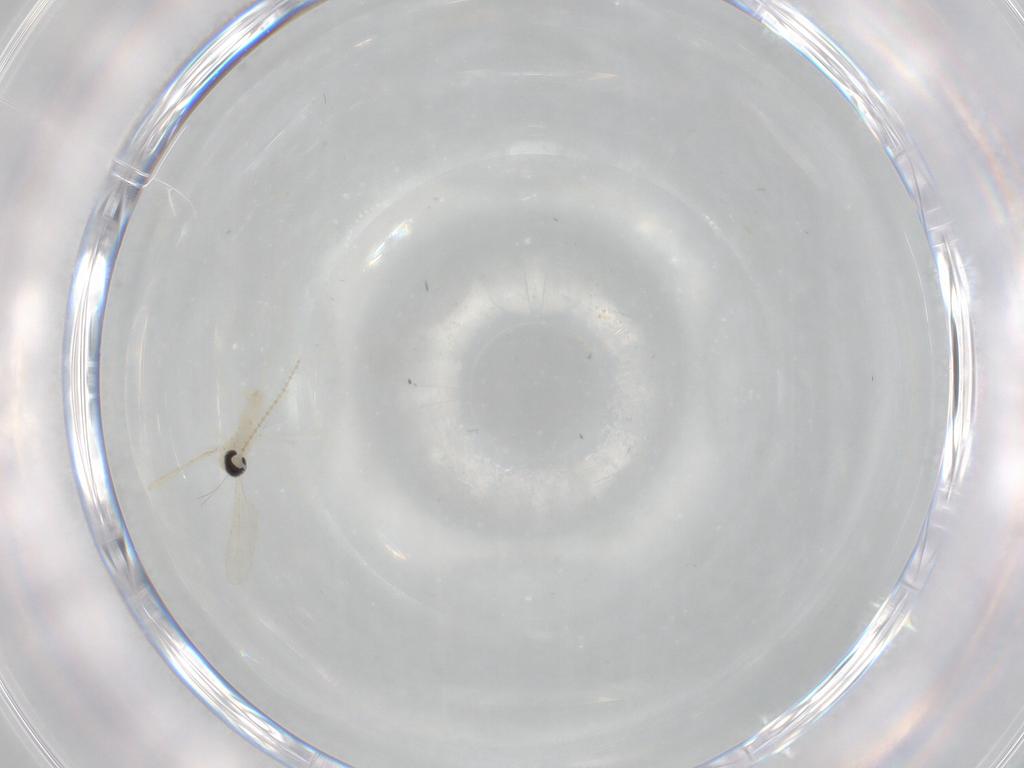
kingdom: Animalia
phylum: Arthropoda
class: Insecta
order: Diptera
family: Cecidomyiidae
